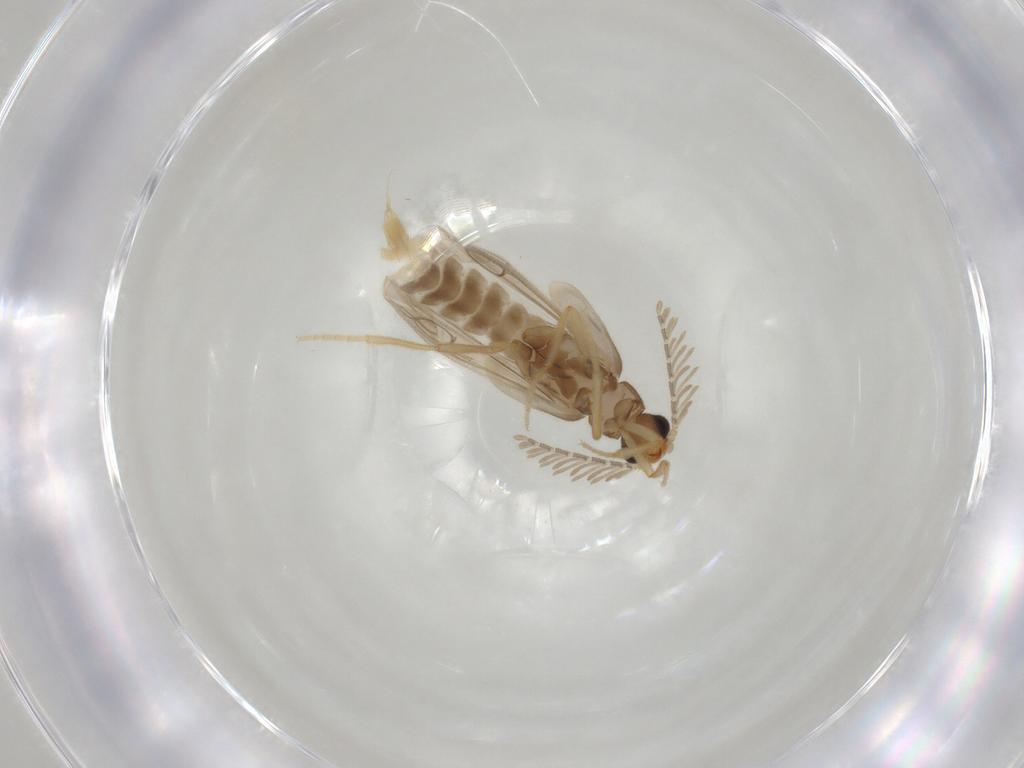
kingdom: Animalia
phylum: Arthropoda
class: Insecta
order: Coleoptera
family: Phengodidae
